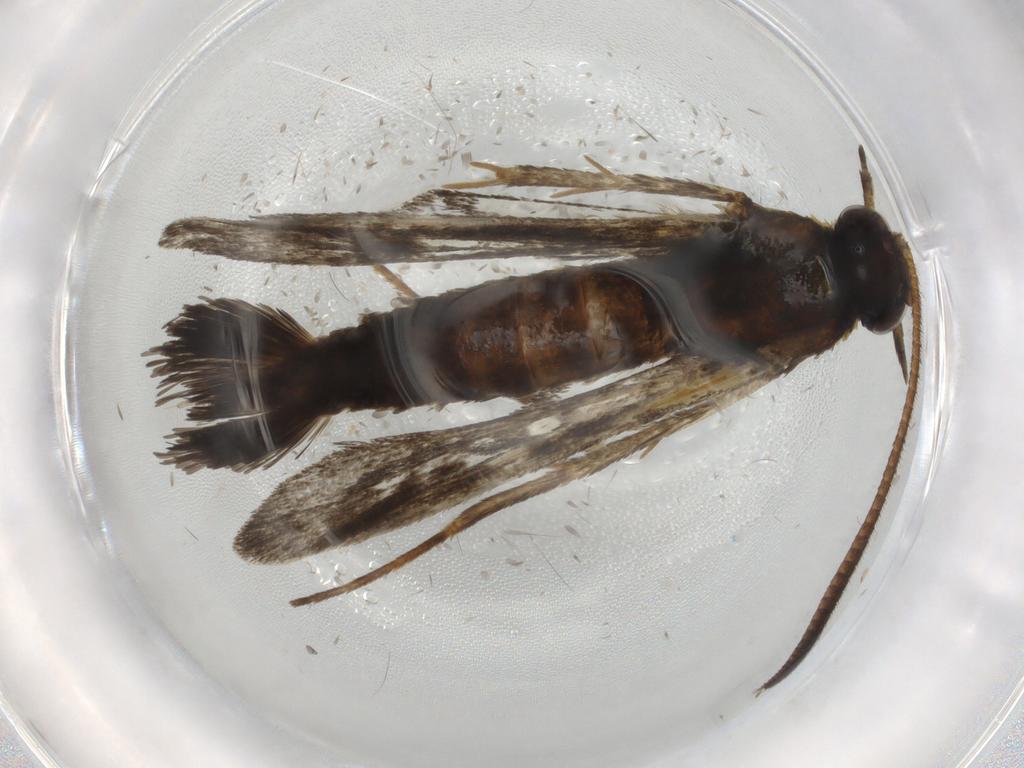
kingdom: Animalia
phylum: Arthropoda
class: Insecta
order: Lepidoptera
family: Sesiidae
